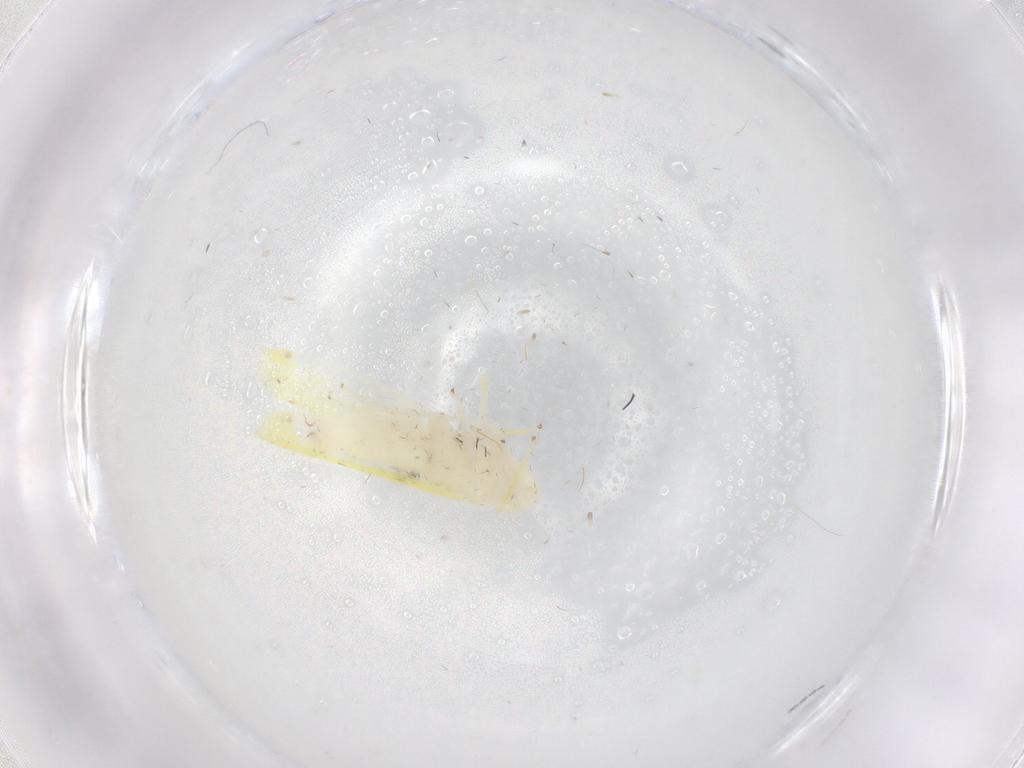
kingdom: Animalia
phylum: Arthropoda
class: Insecta
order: Hemiptera
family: Cicadellidae
